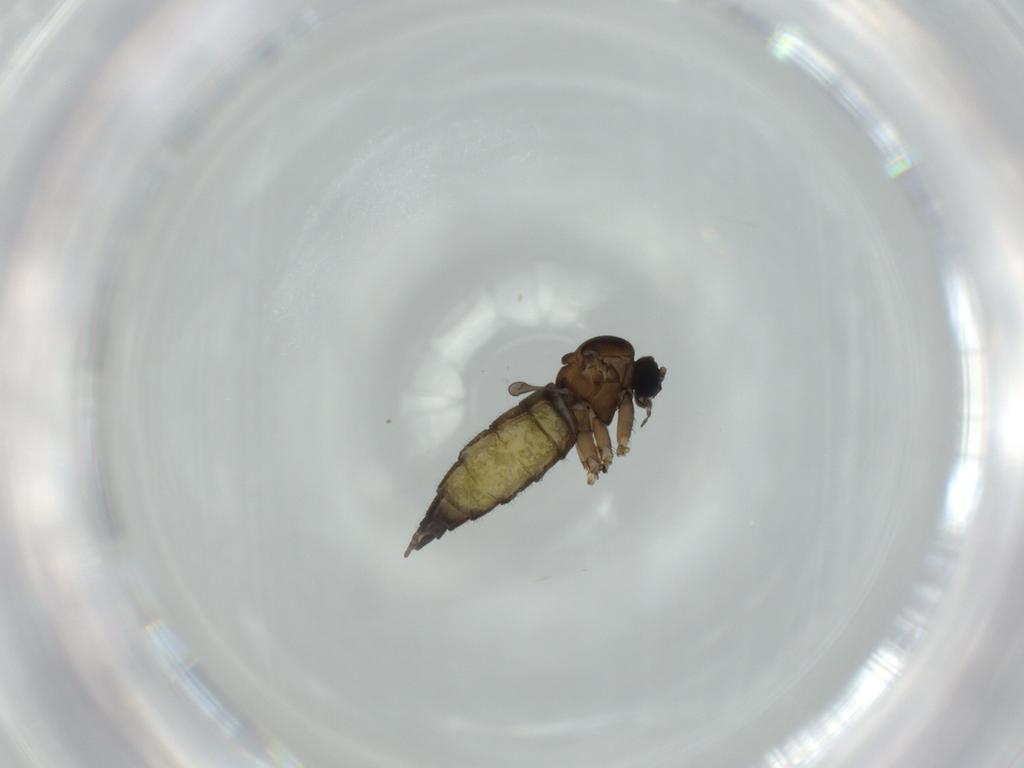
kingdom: Animalia
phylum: Arthropoda
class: Insecta
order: Diptera
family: Sciaridae
